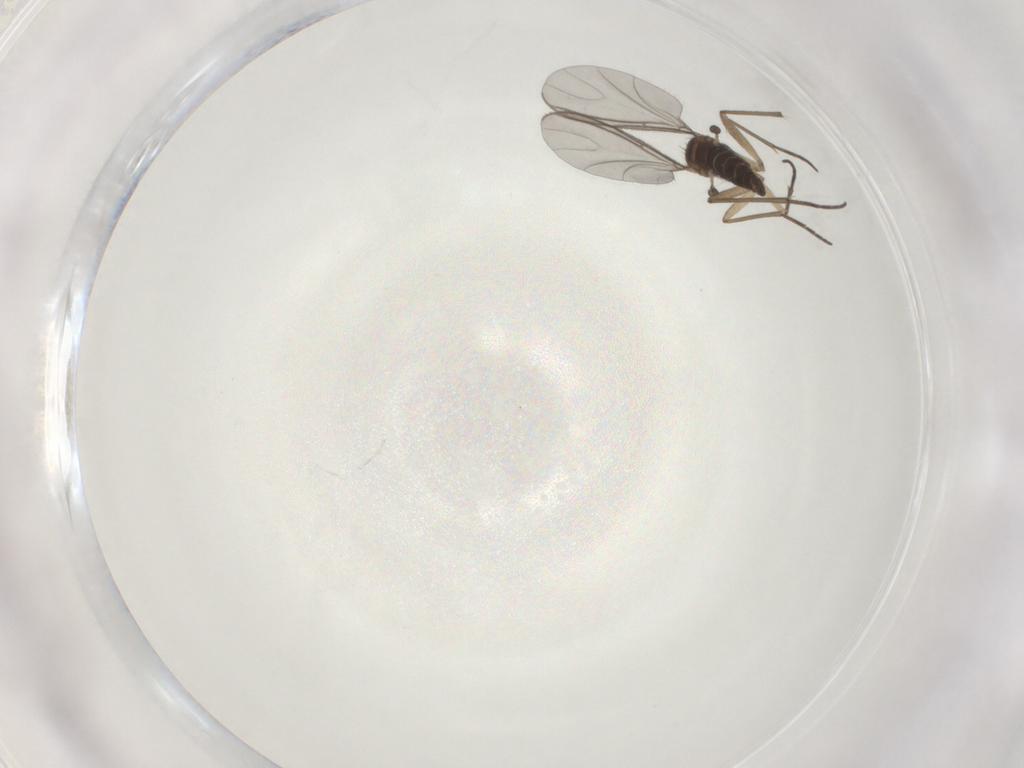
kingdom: Animalia
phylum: Arthropoda
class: Insecta
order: Diptera
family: Sciaridae
